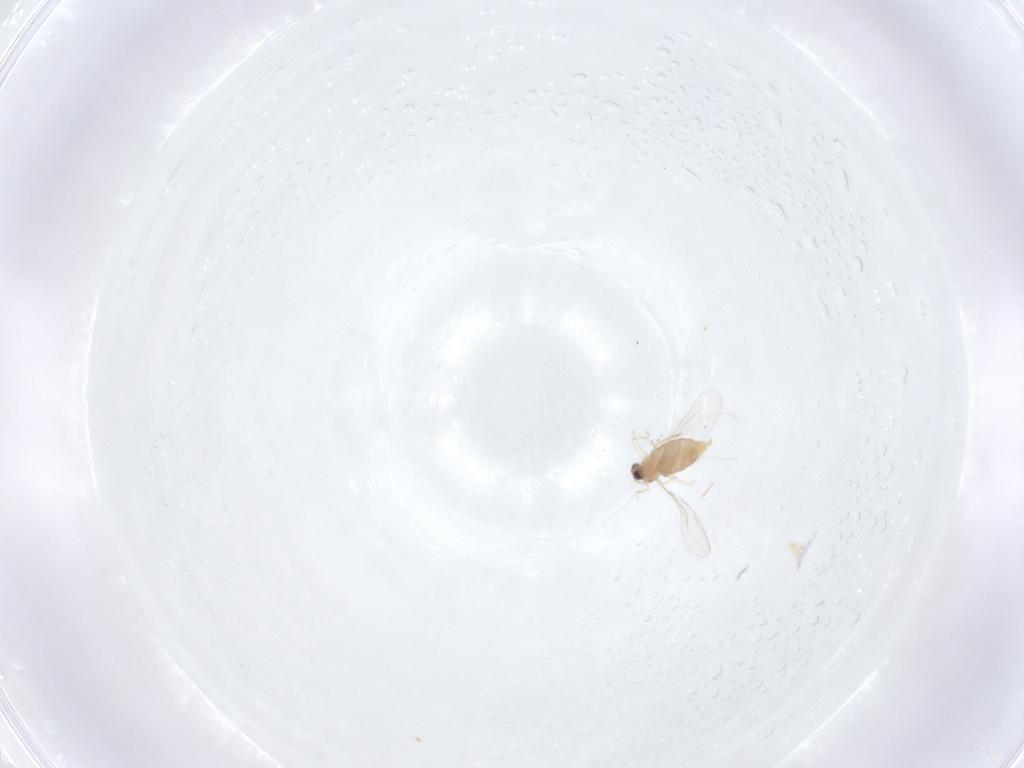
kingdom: Animalia
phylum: Arthropoda
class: Insecta
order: Diptera
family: Cecidomyiidae
